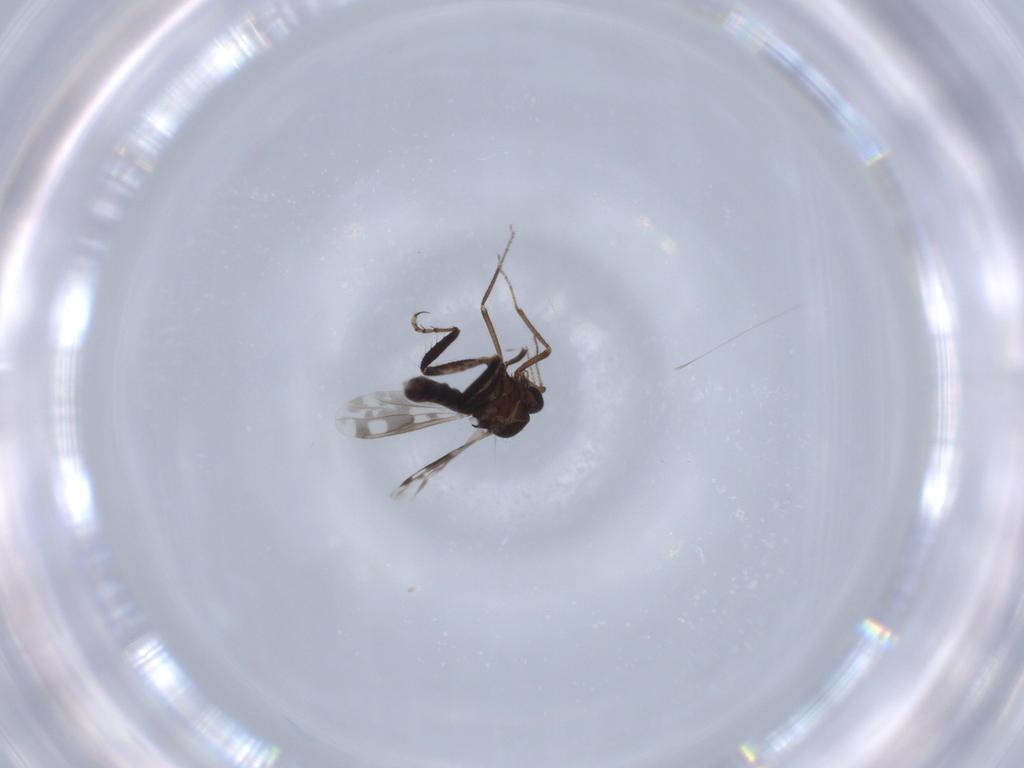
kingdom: Animalia
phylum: Arthropoda
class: Insecta
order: Diptera
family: Ceratopogonidae
